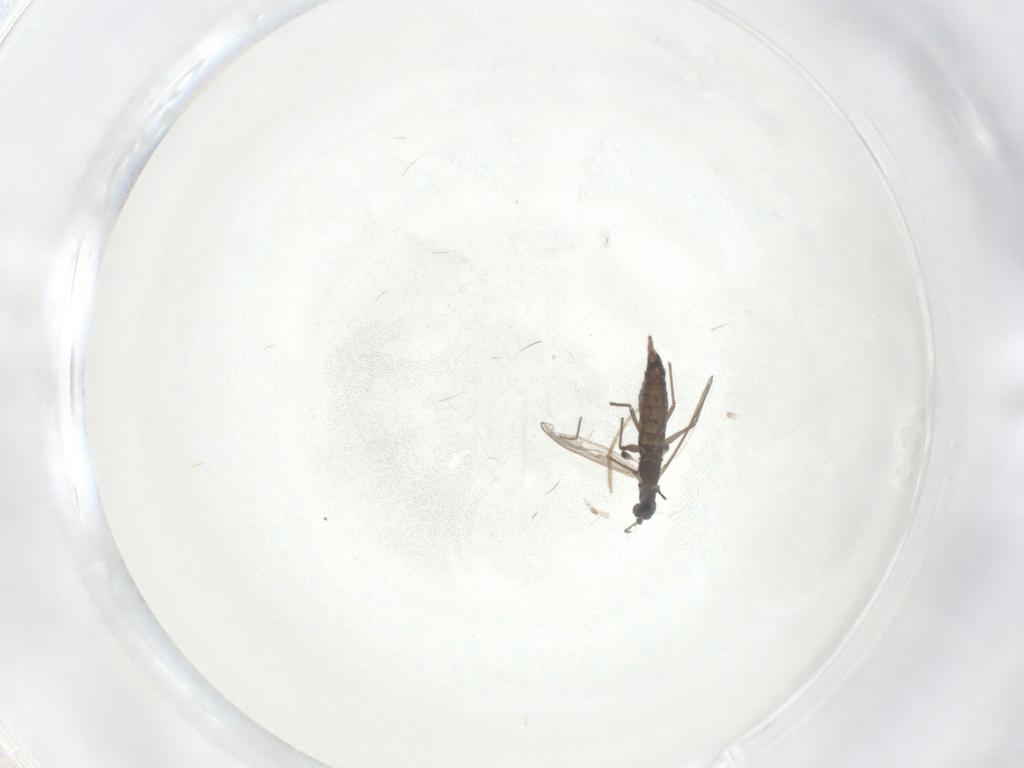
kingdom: Animalia
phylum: Arthropoda
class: Insecta
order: Diptera
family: Chironomidae
